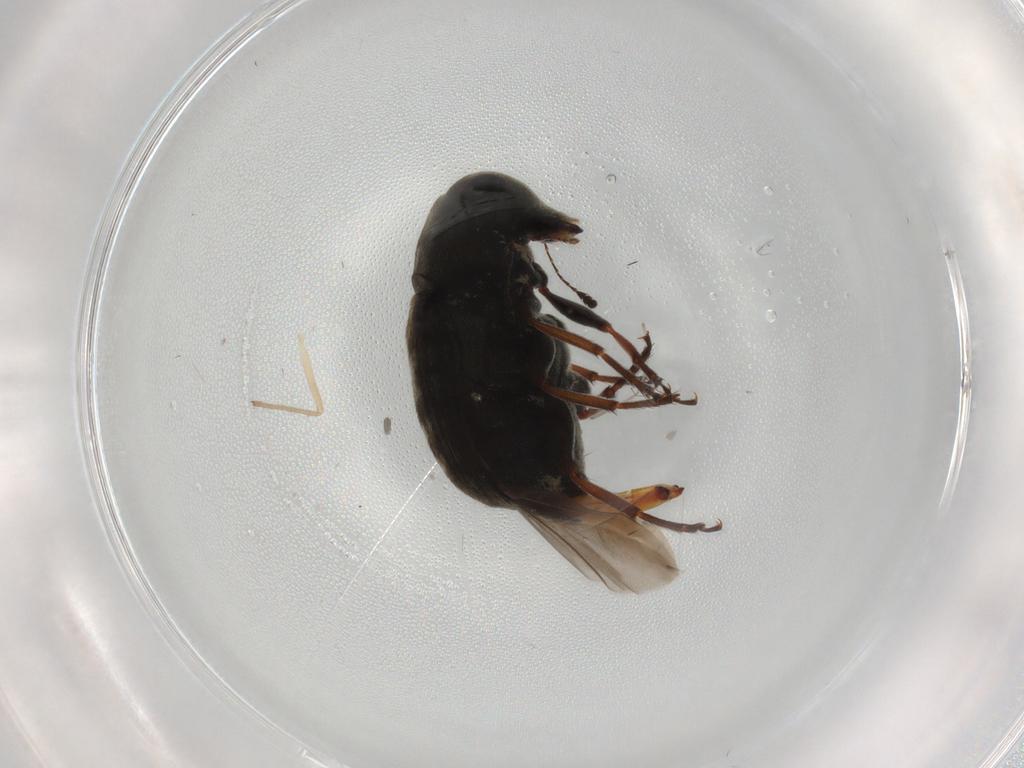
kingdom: Animalia
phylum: Arthropoda
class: Insecta
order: Coleoptera
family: Anthribidae
